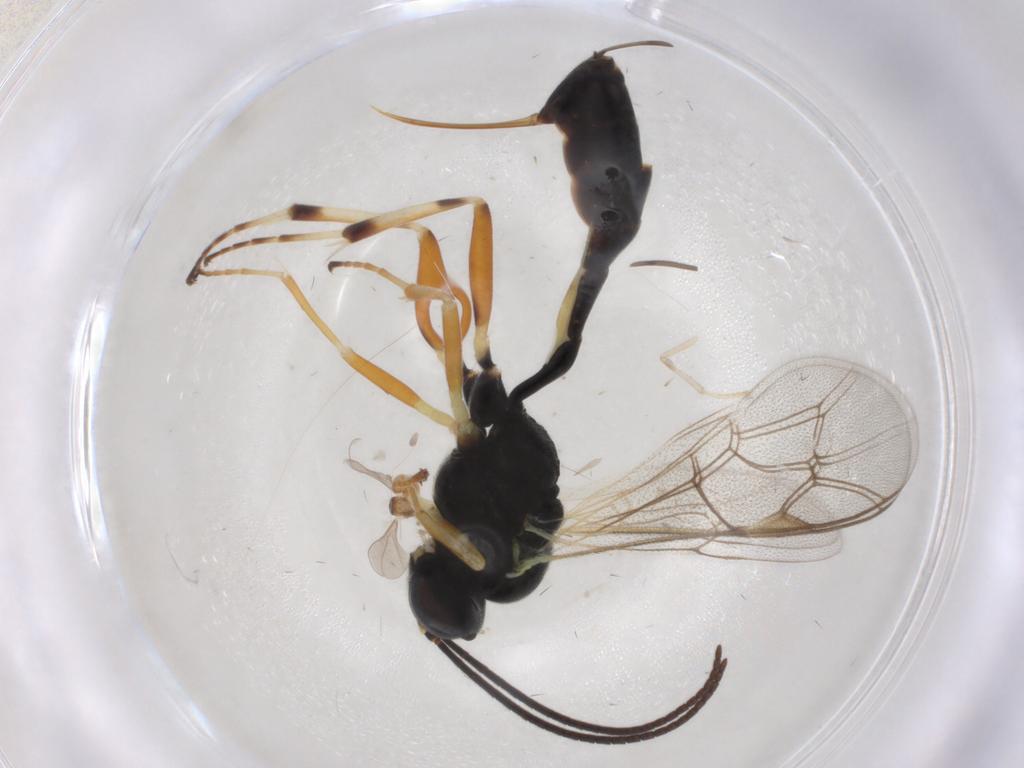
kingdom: Animalia
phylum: Arthropoda
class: Insecta
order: Hymenoptera
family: Ichneumonidae
